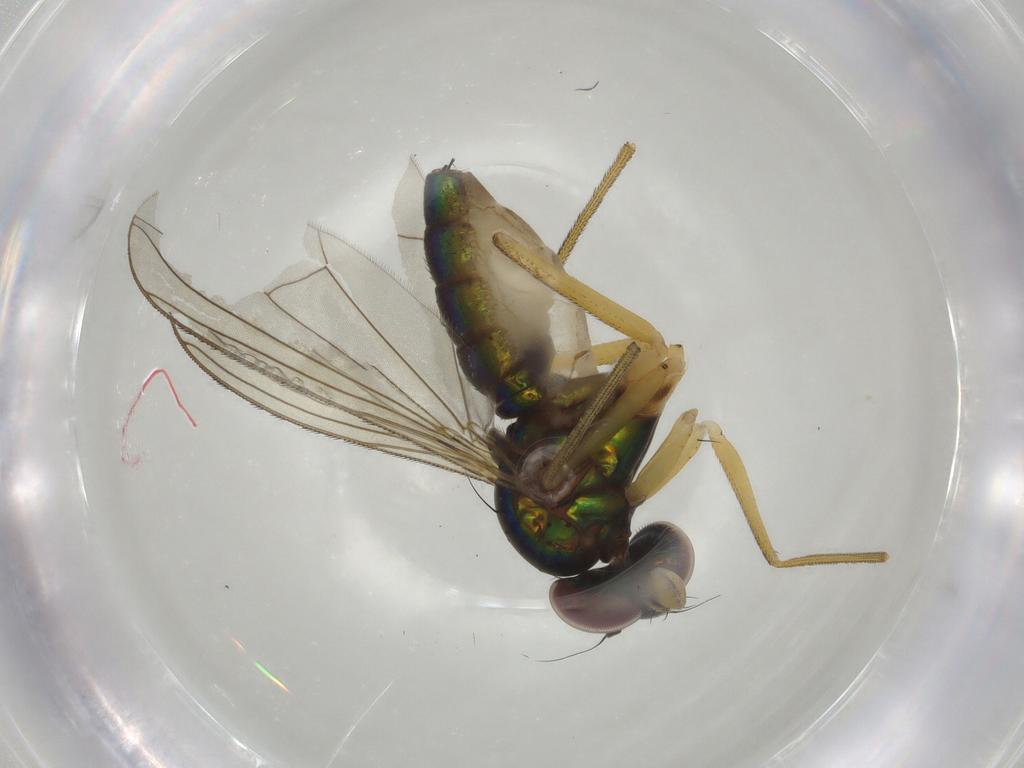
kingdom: Animalia
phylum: Arthropoda
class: Insecta
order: Diptera
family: Dolichopodidae
